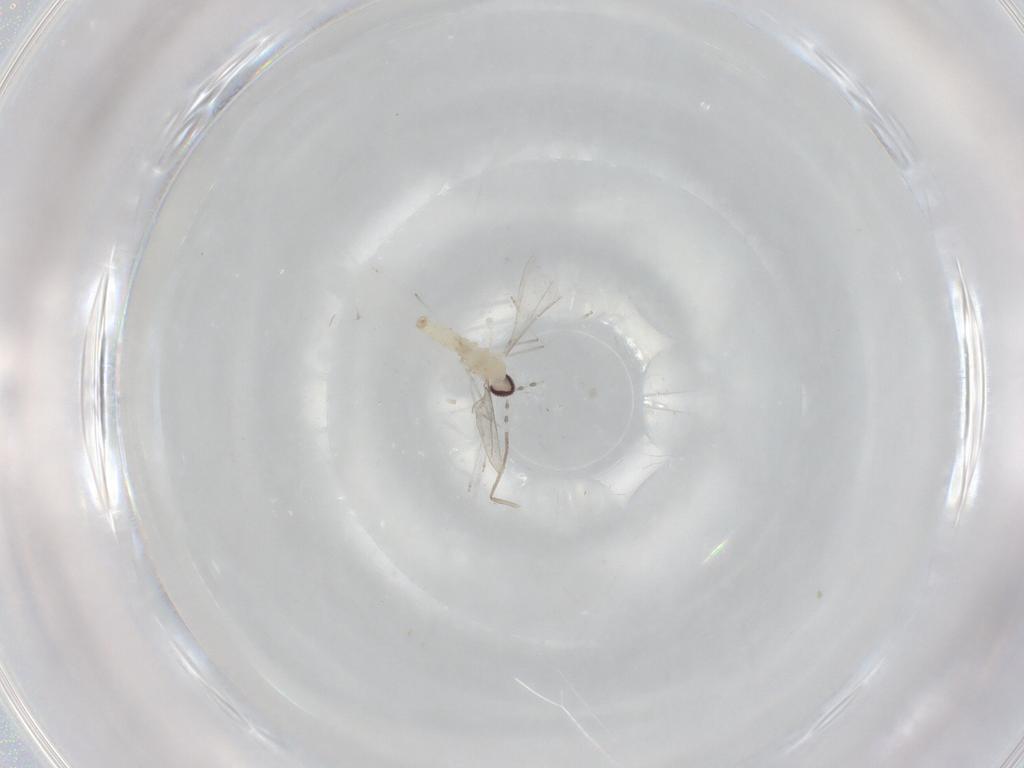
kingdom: Animalia
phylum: Arthropoda
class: Insecta
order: Diptera
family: Cecidomyiidae
